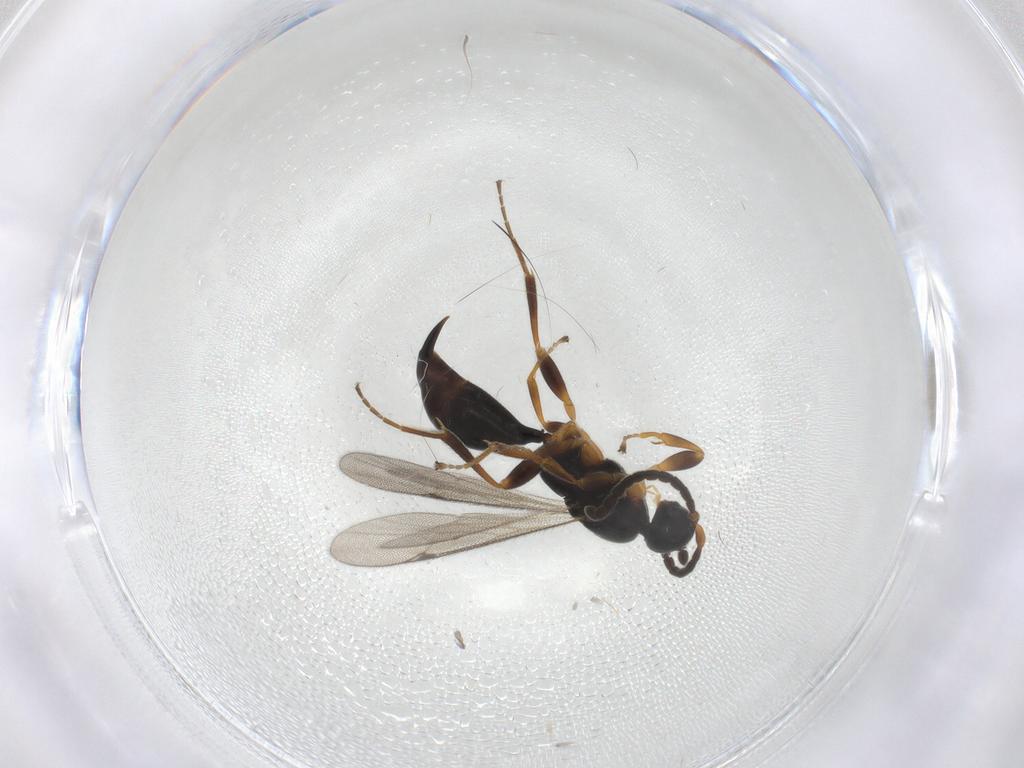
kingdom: Animalia
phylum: Arthropoda
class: Insecta
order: Hymenoptera
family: Proctotrupidae
